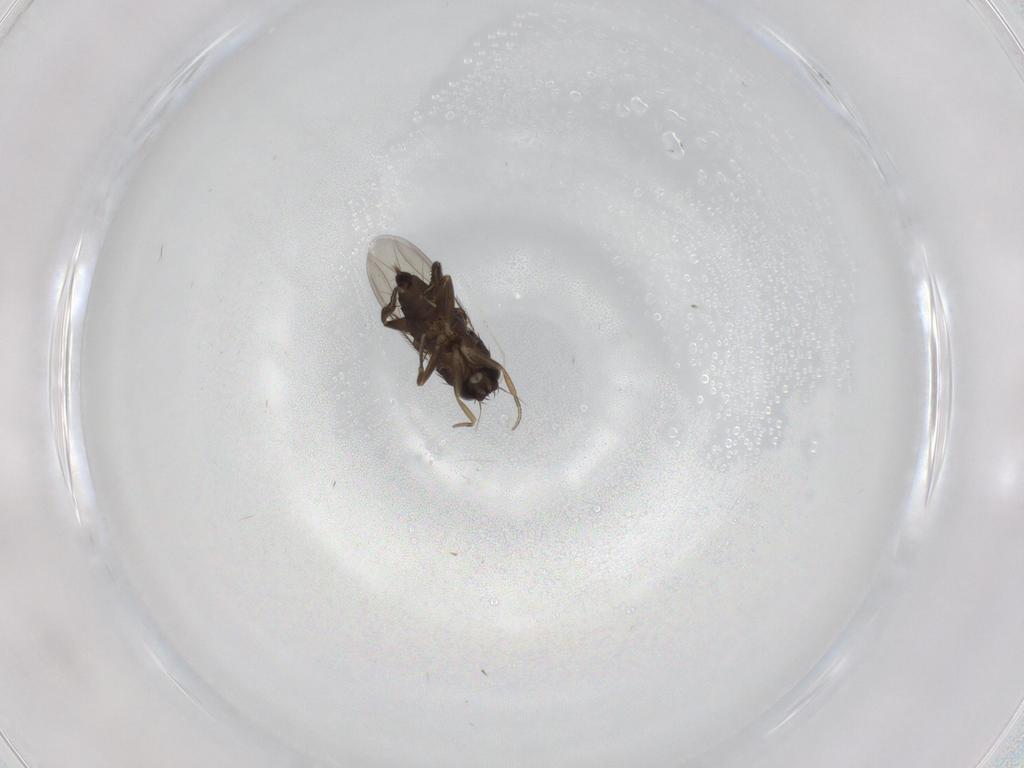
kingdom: Animalia
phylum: Arthropoda
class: Insecta
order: Diptera
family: Phoridae
